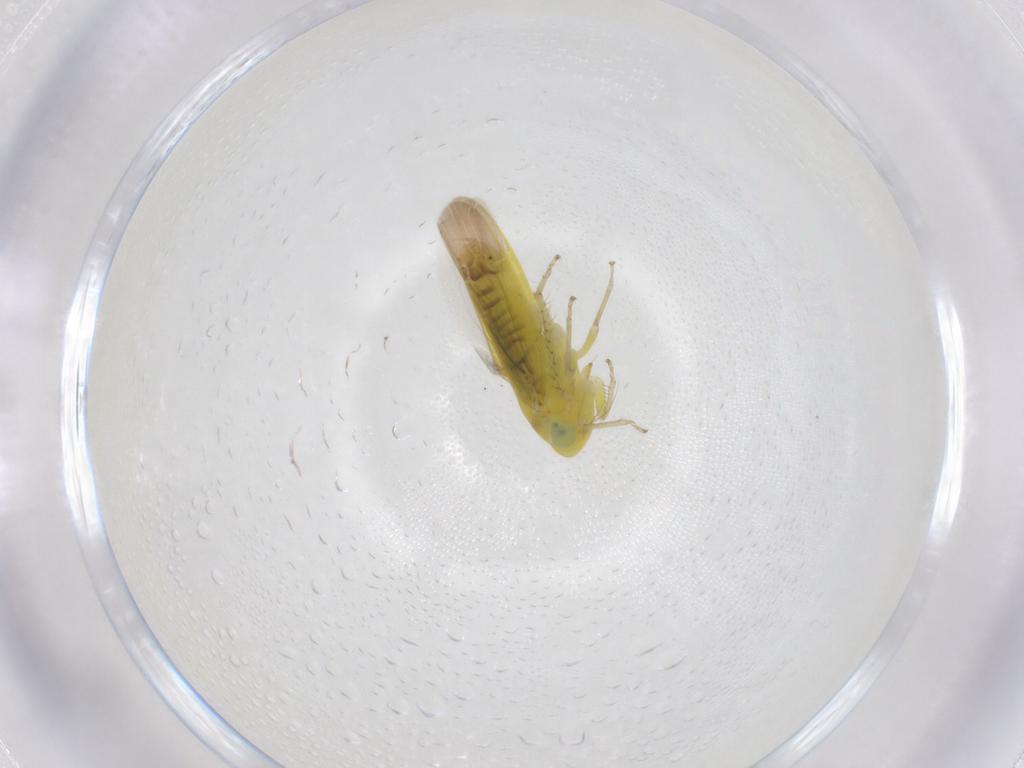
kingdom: Animalia
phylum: Arthropoda
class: Insecta
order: Hemiptera
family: Cicadellidae
